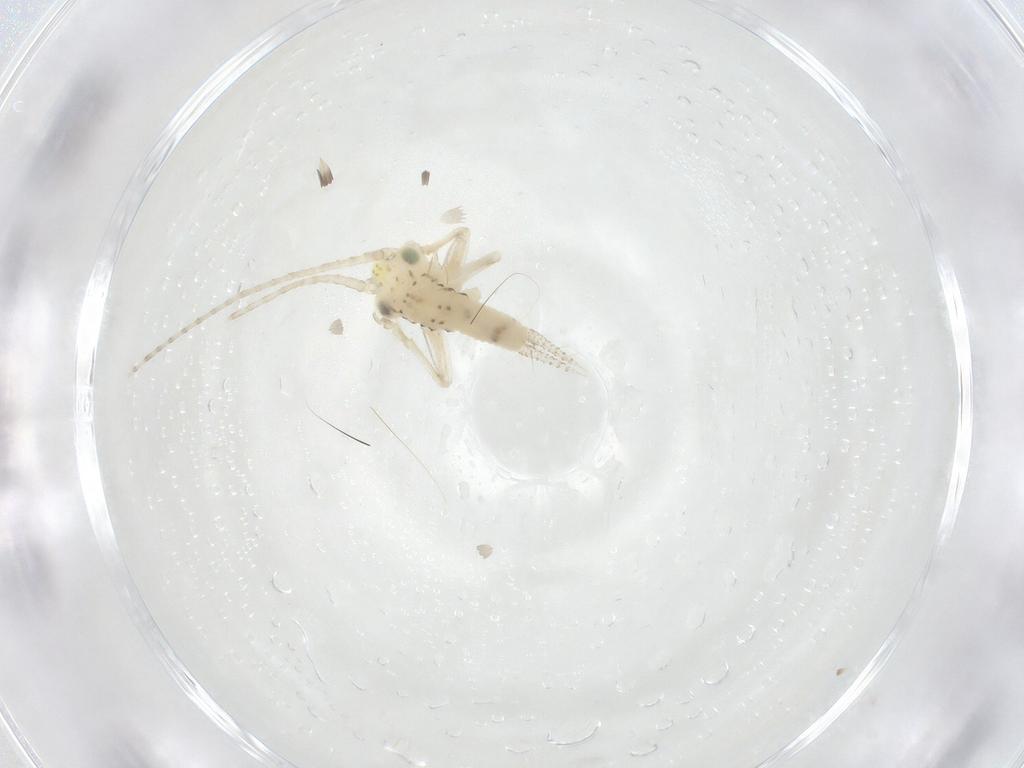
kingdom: Animalia
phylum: Arthropoda
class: Insecta
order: Orthoptera
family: Trigonidiidae
